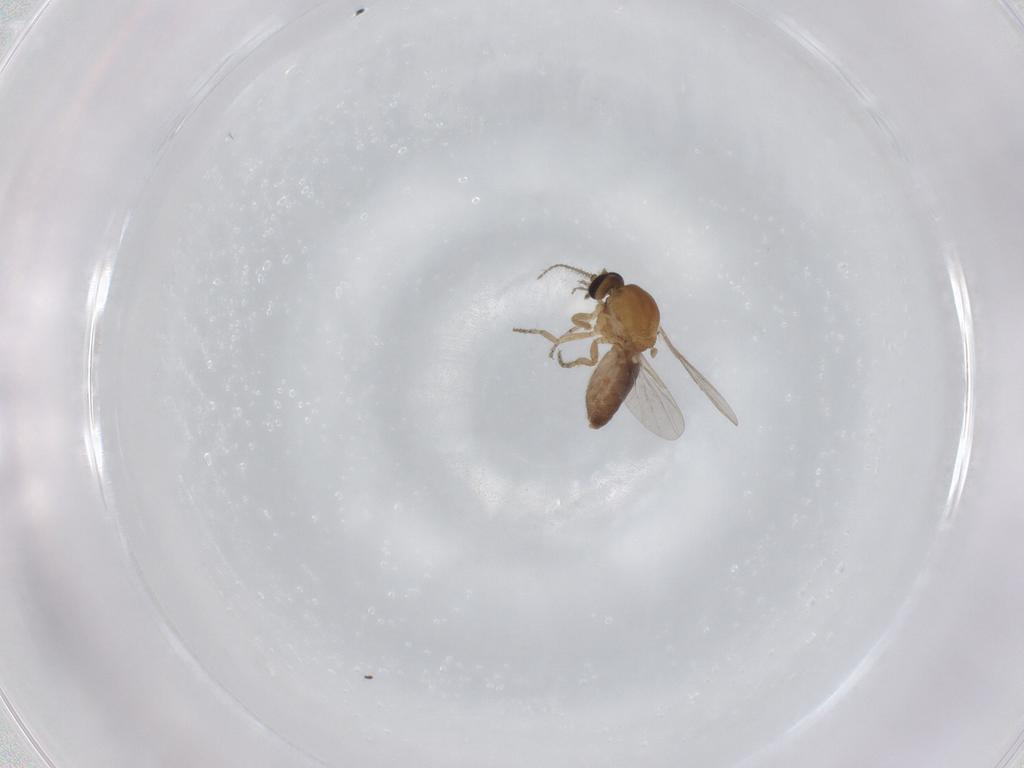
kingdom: Animalia
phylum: Arthropoda
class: Insecta
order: Diptera
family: Ceratopogonidae
